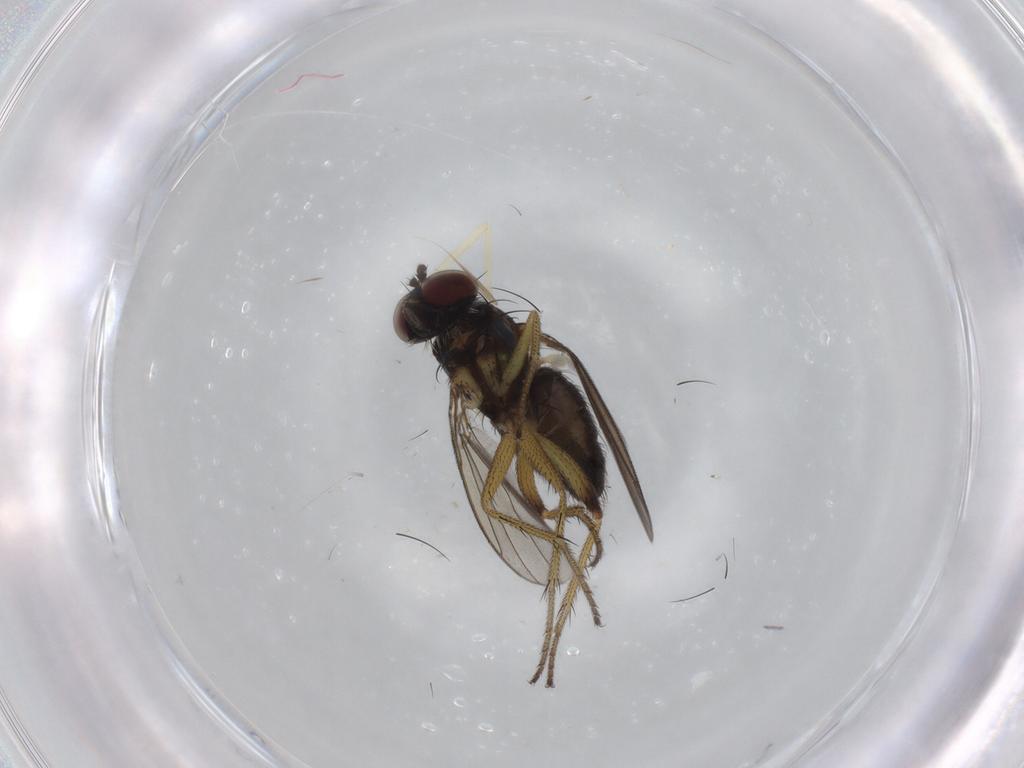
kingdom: Animalia
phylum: Arthropoda
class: Insecta
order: Diptera
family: Dolichopodidae
